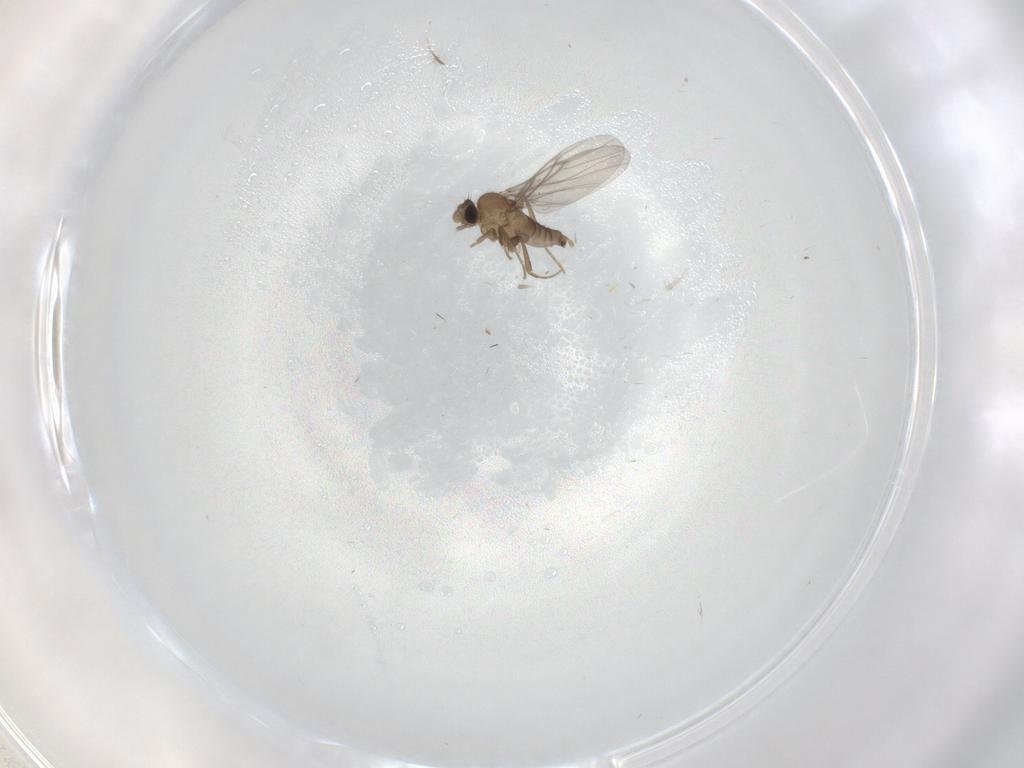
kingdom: Animalia
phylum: Arthropoda
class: Insecta
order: Diptera
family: Psychodidae
